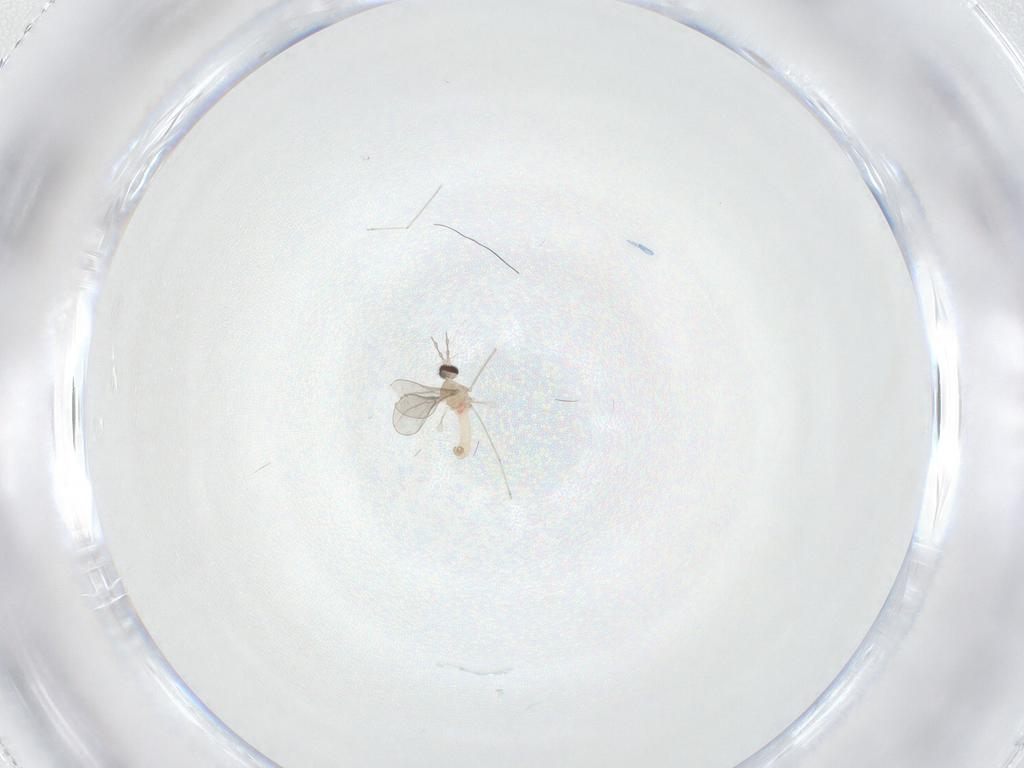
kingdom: Animalia
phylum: Arthropoda
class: Insecta
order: Diptera
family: Cecidomyiidae
